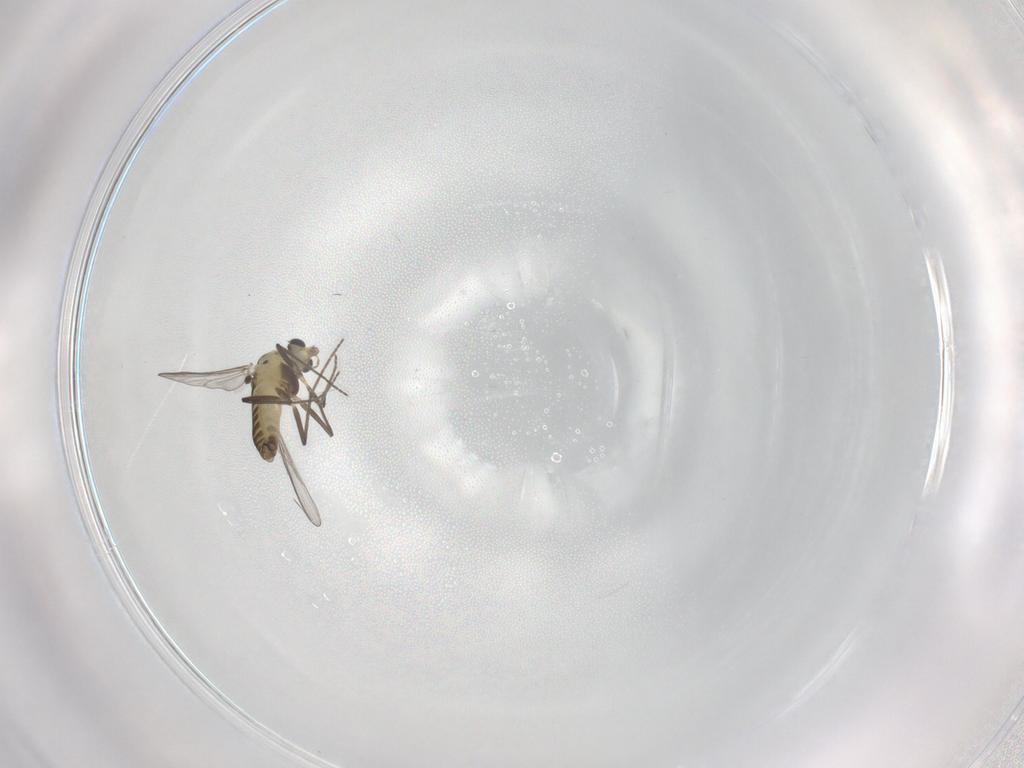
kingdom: Animalia
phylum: Arthropoda
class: Insecta
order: Diptera
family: Chironomidae
